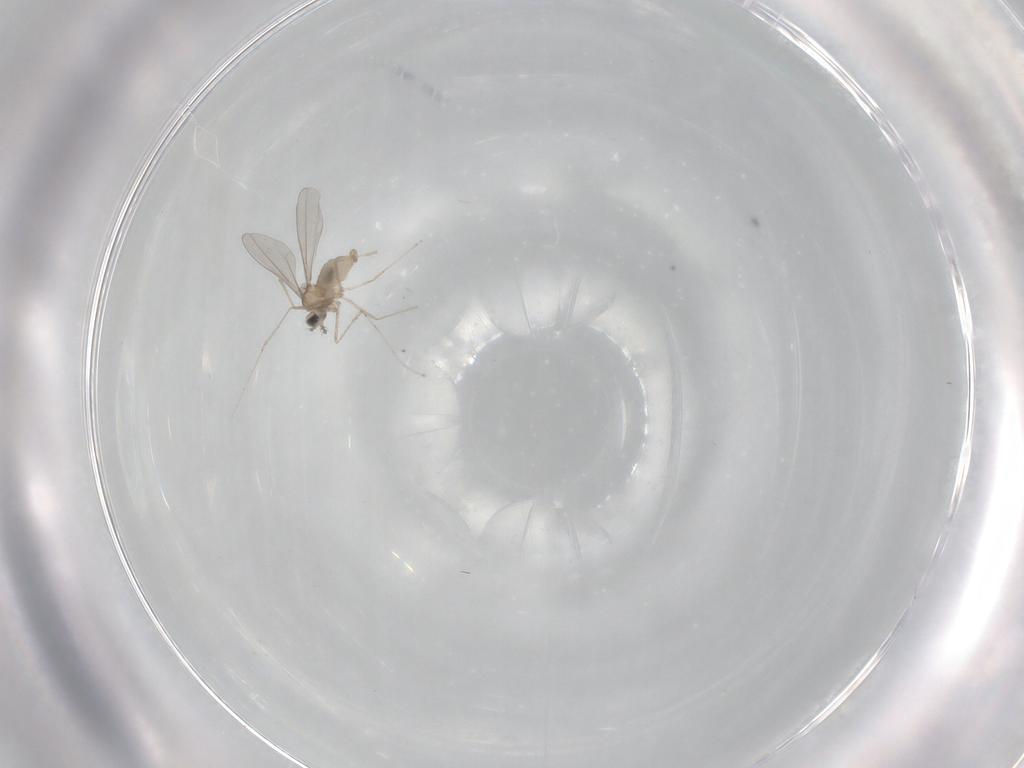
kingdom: Animalia
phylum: Arthropoda
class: Insecta
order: Diptera
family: Cecidomyiidae
